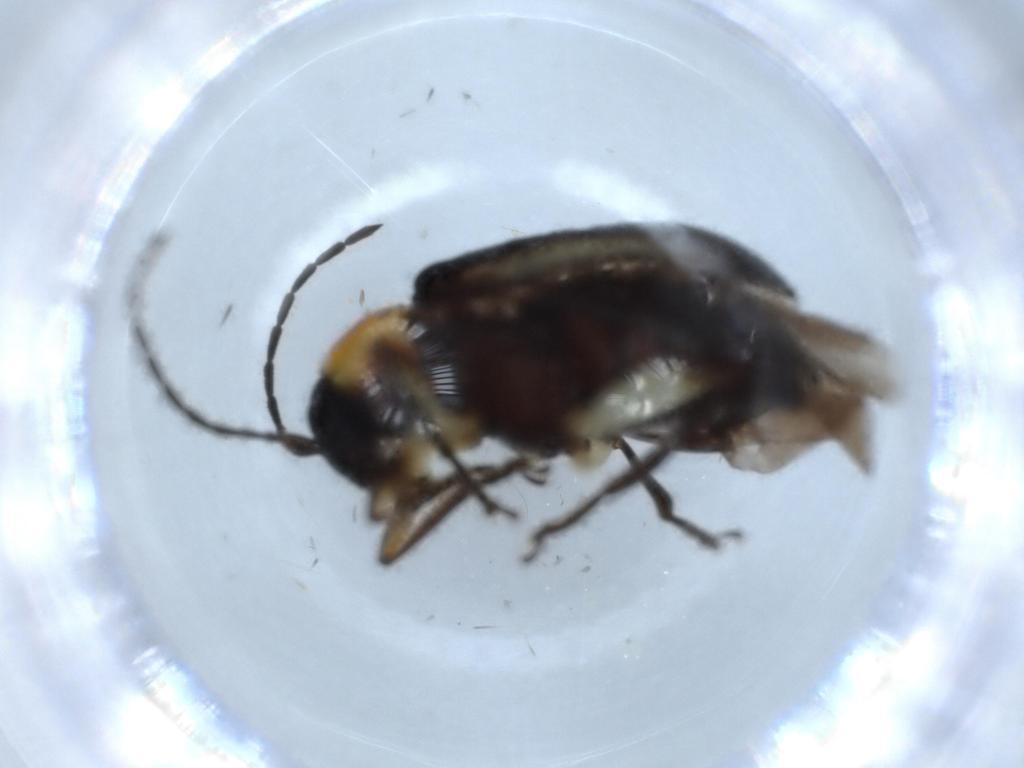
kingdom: Animalia
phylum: Arthropoda
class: Insecta
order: Coleoptera
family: Chrysomelidae
